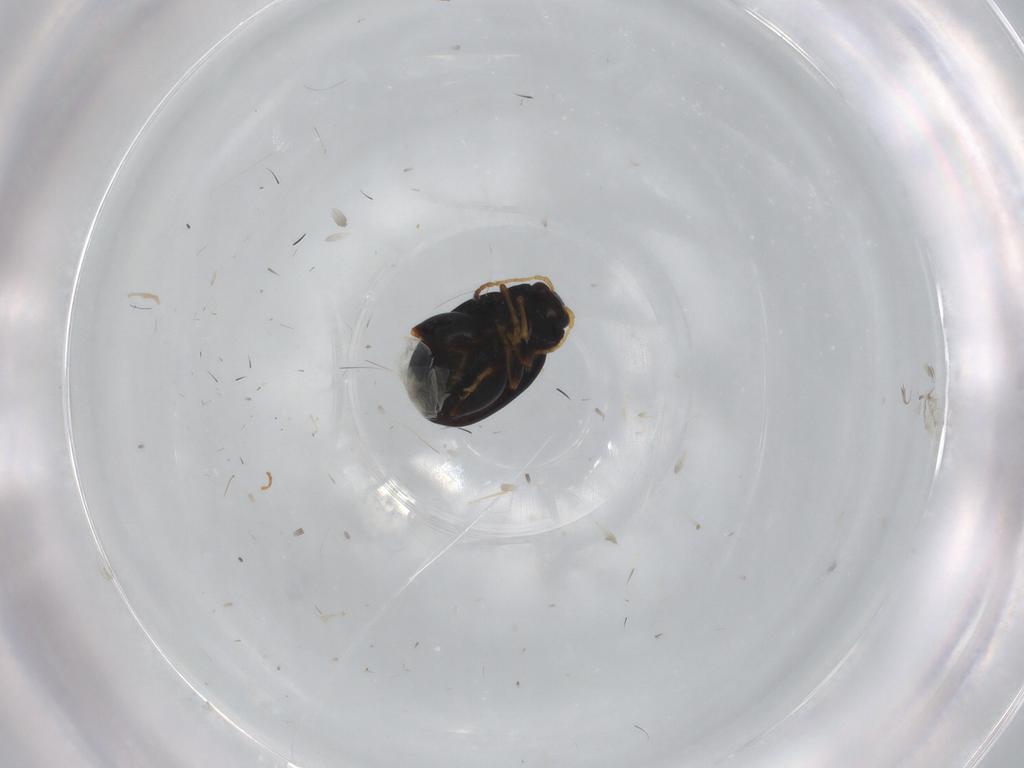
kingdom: Animalia
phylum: Arthropoda
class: Insecta
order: Coleoptera
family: Chrysomelidae
